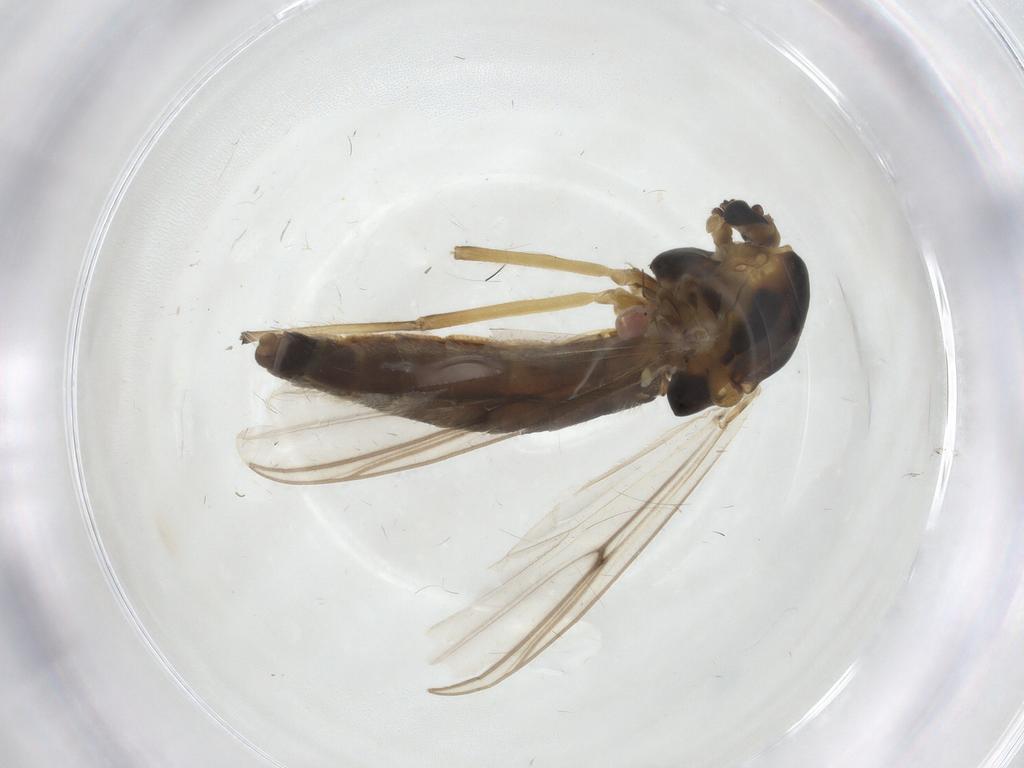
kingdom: Animalia
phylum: Arthropoda
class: Insecta
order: Diptera
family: Chironomidae
